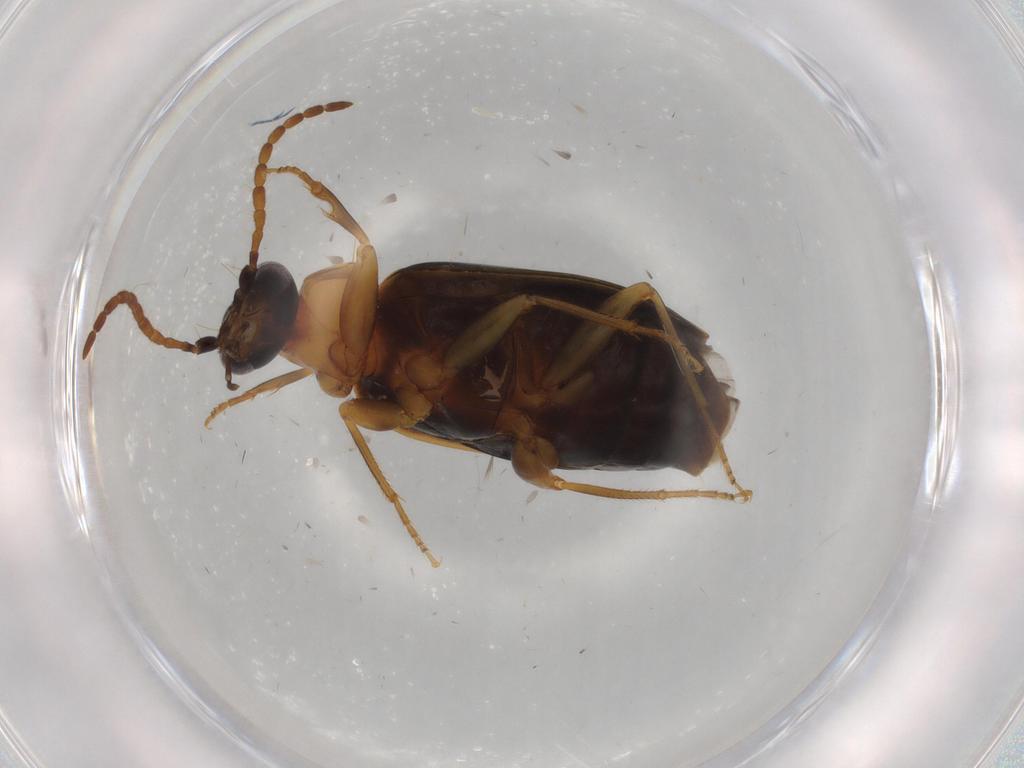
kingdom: Animalia
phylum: Arthropoda
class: Insecta
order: Coleoptera
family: Carabidae
